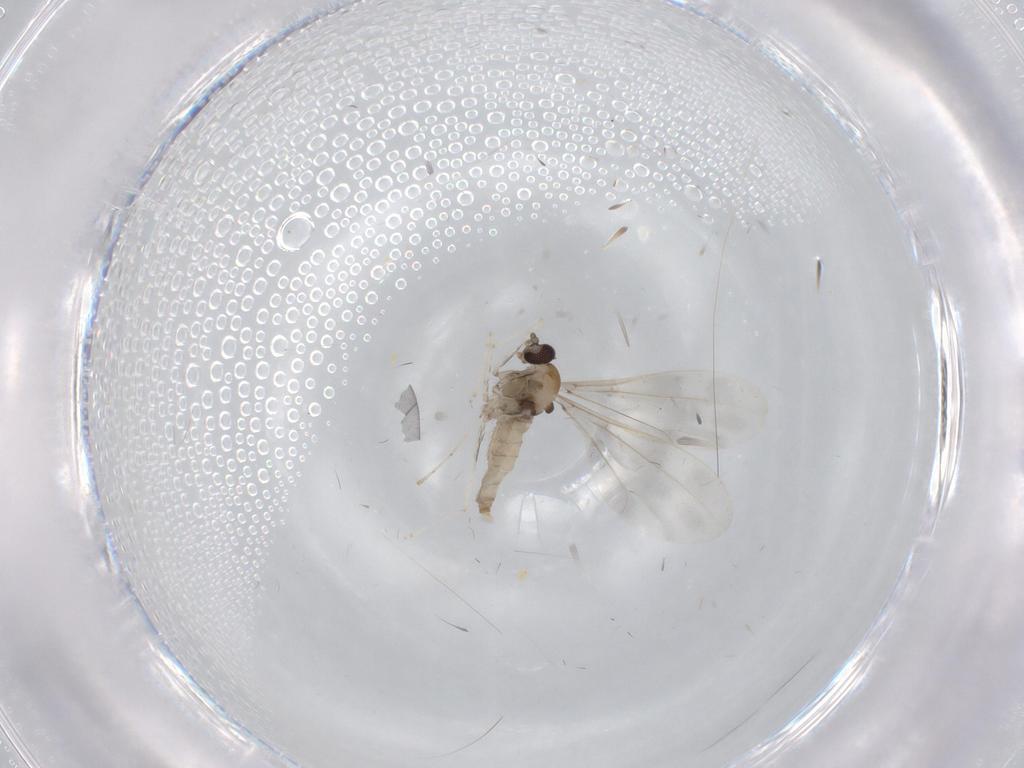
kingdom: Animalia
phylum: Arthropoda
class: Insecta
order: Diptera
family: Cecidomyiidae
